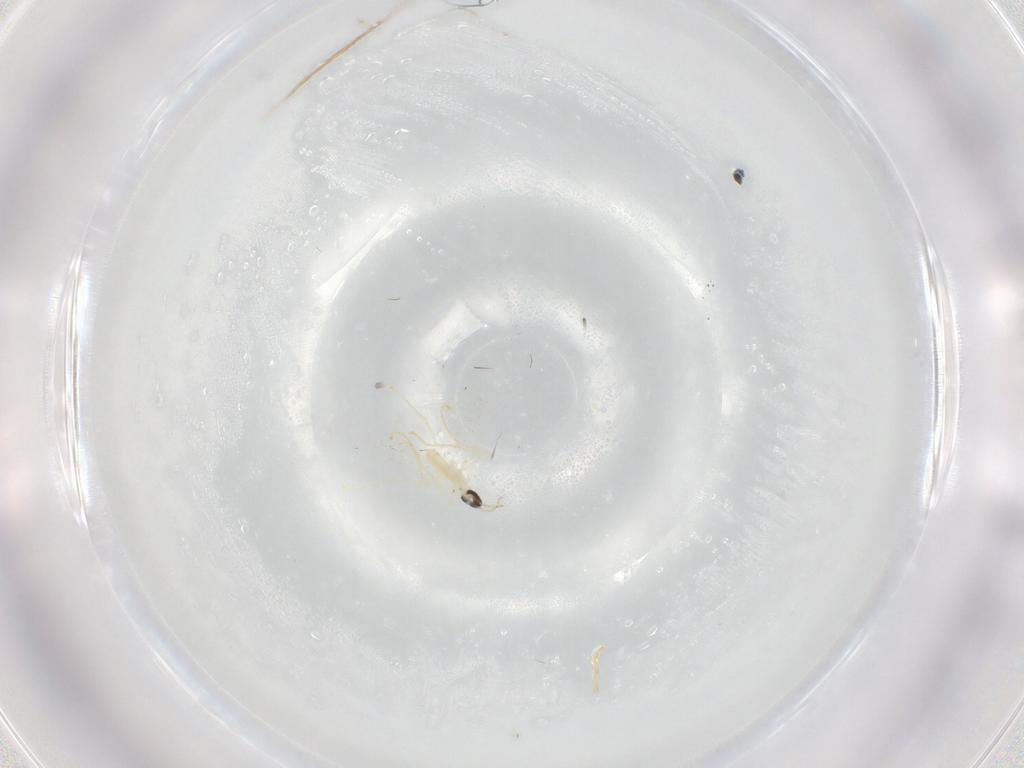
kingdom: Animalia
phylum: Arthropoda
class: Insecta
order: Diptera
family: Cecidomyiidae
